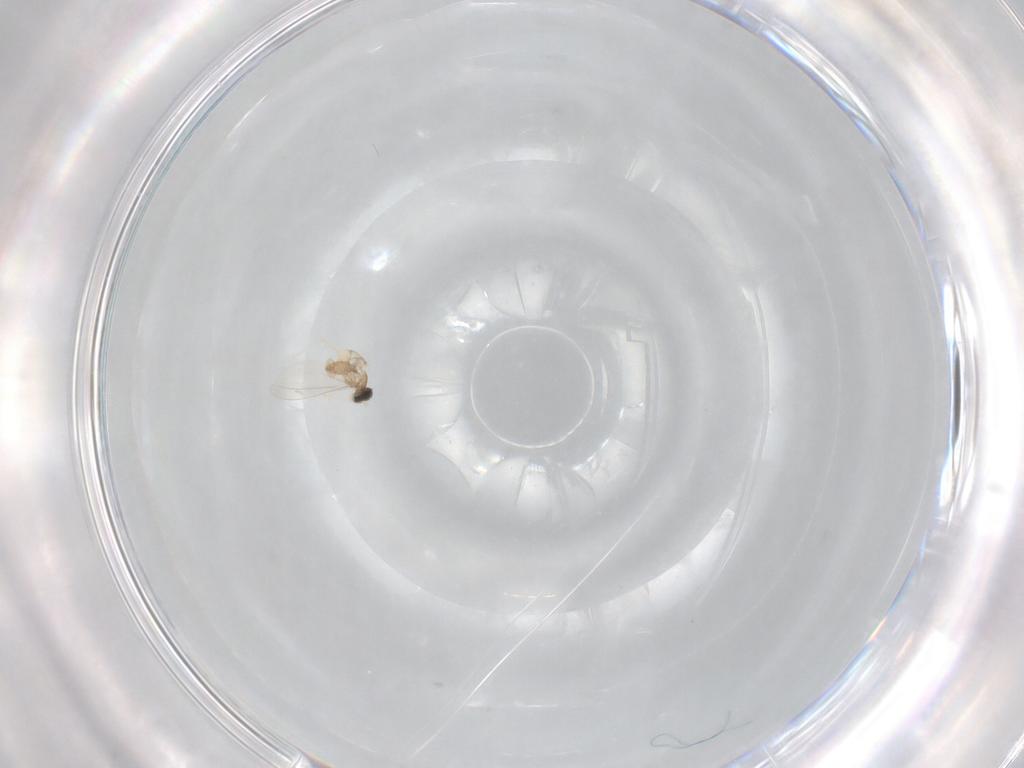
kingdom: Animalia
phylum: Arthropoda
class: Insecta
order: Diptera
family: Cecidomyiidae
